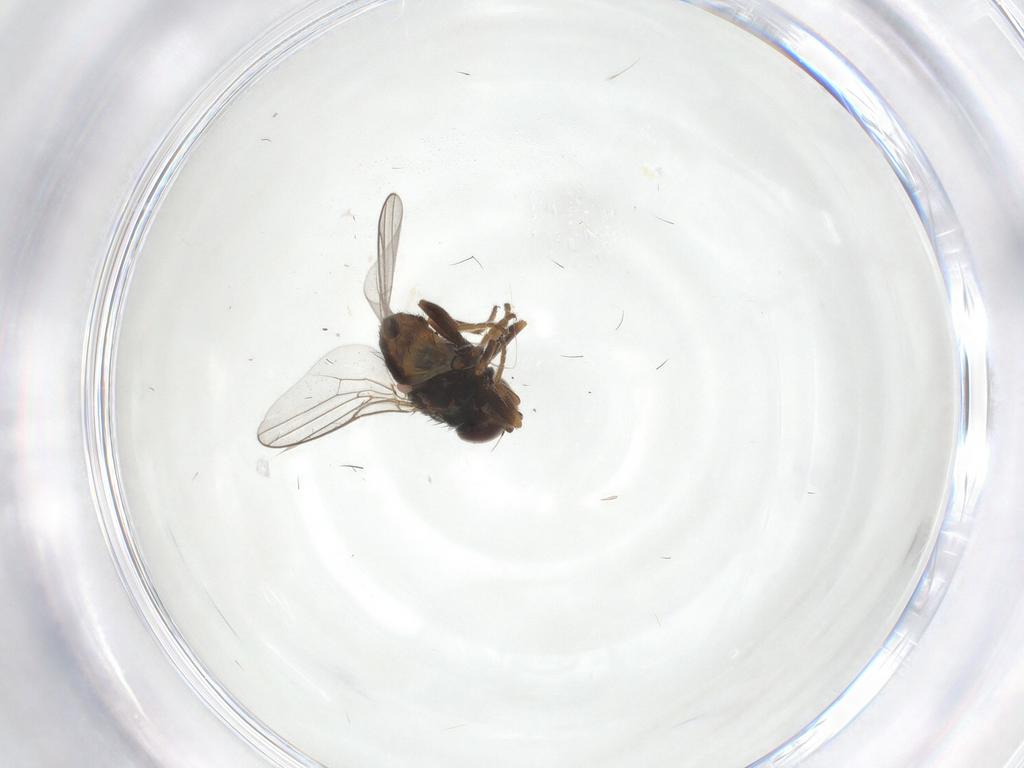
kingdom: Animalia
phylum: Arthropoda
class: Insecta
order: Diptera
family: Chloropidae
